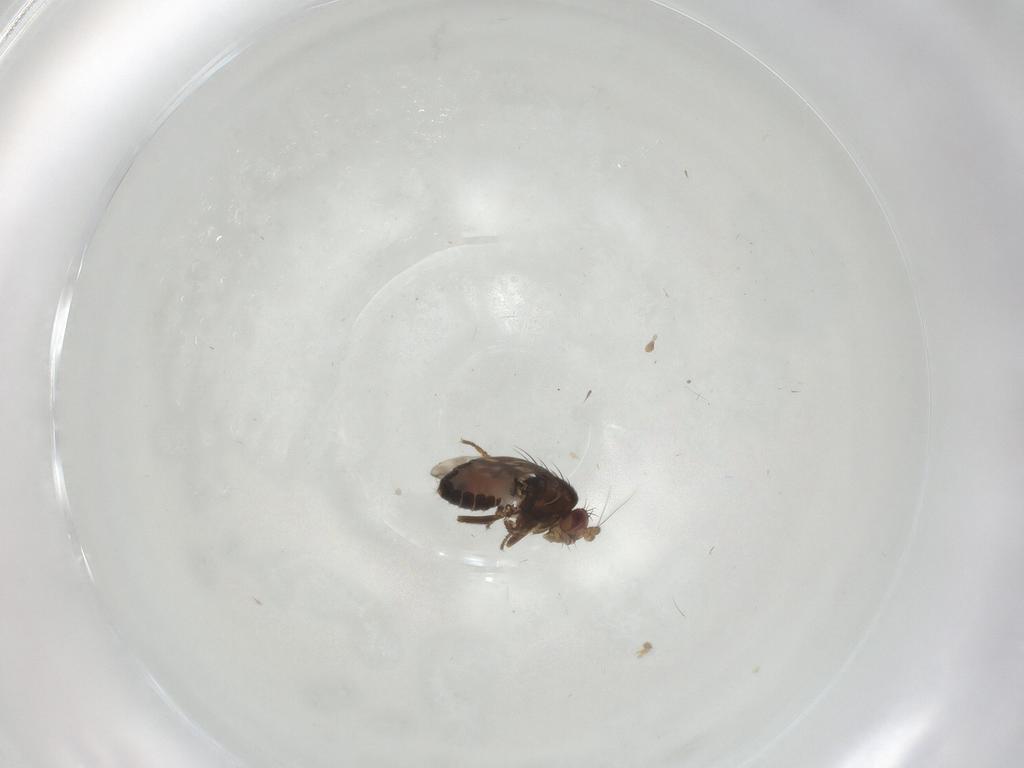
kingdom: Animalia
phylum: Arthropoda
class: Insecta
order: Diptera
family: Sphaeroceridae
